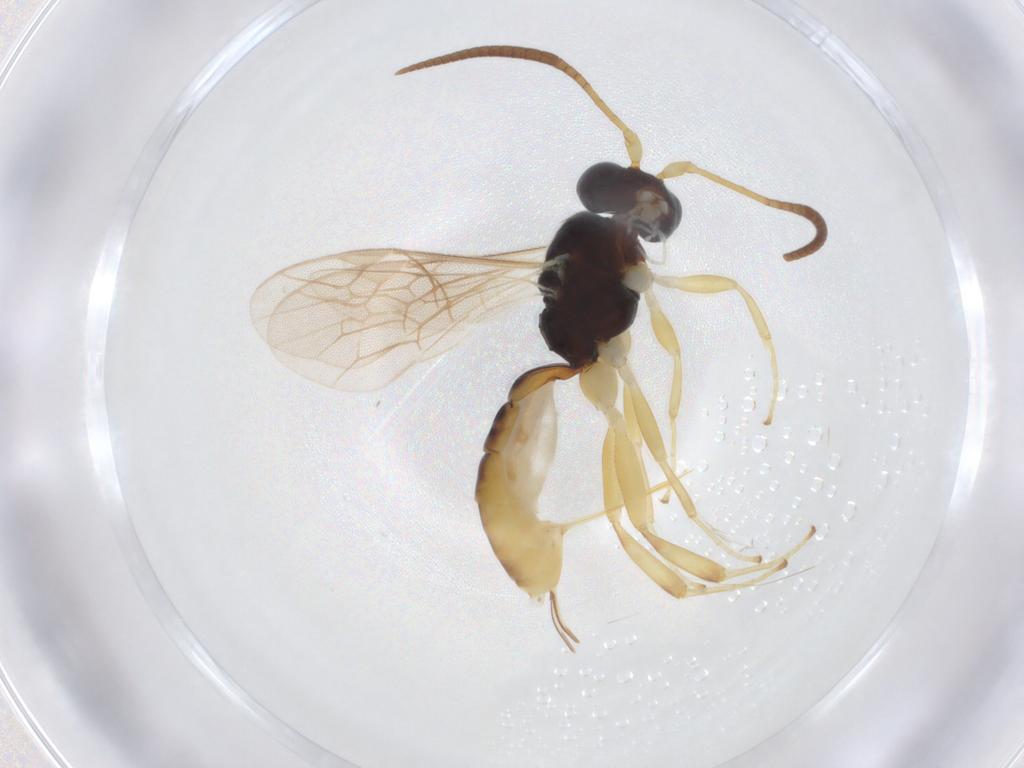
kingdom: Animalia
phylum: Arthropoda
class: Insecta
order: Hymenoptera
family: Ichneumonidae
